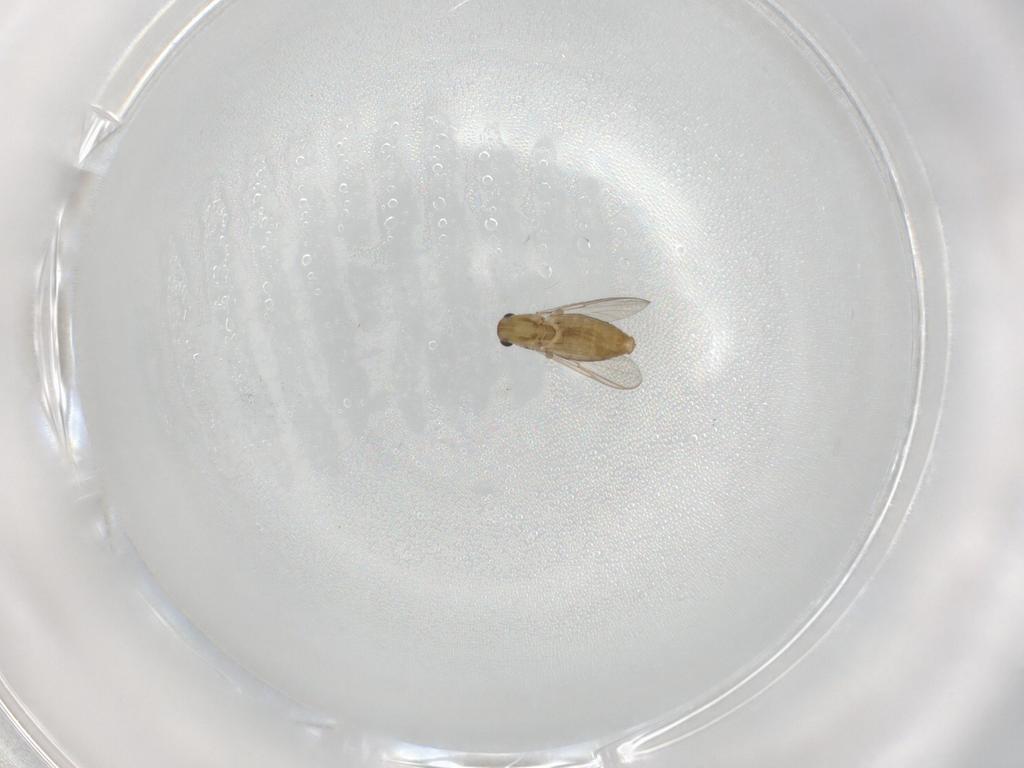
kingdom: Animalia
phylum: Arthropoda
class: Insecta
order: Diptera
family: Chironomidae
